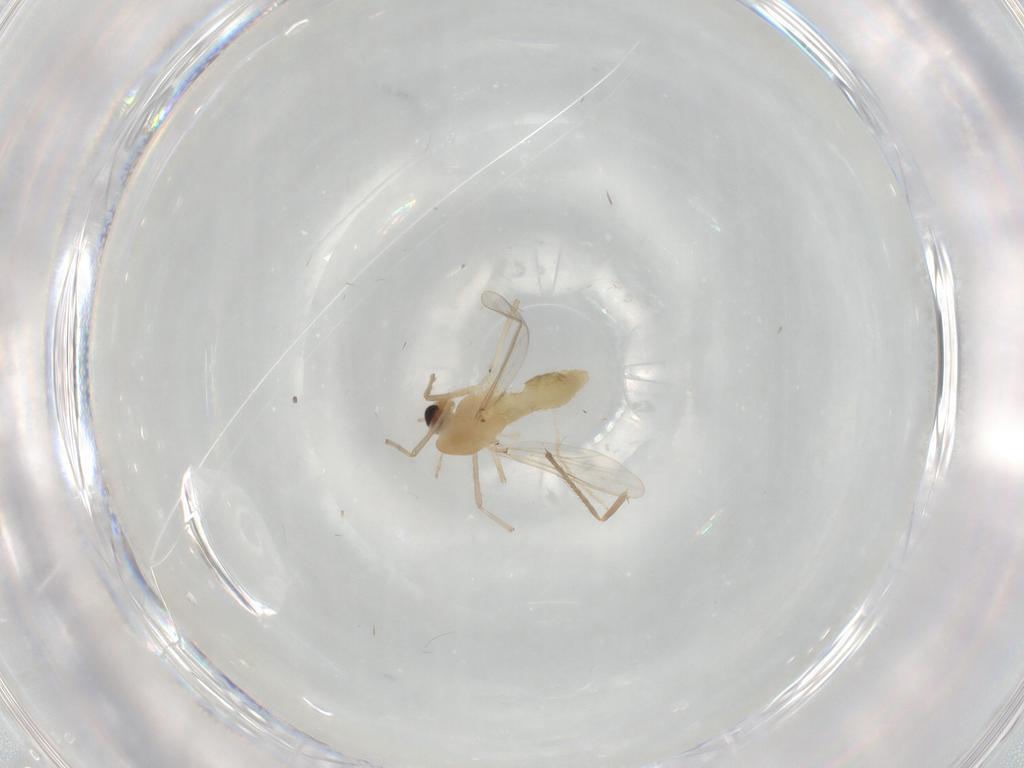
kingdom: Animalia
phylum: Arthropoda
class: Insecta
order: Diptera
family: Chironomidae
